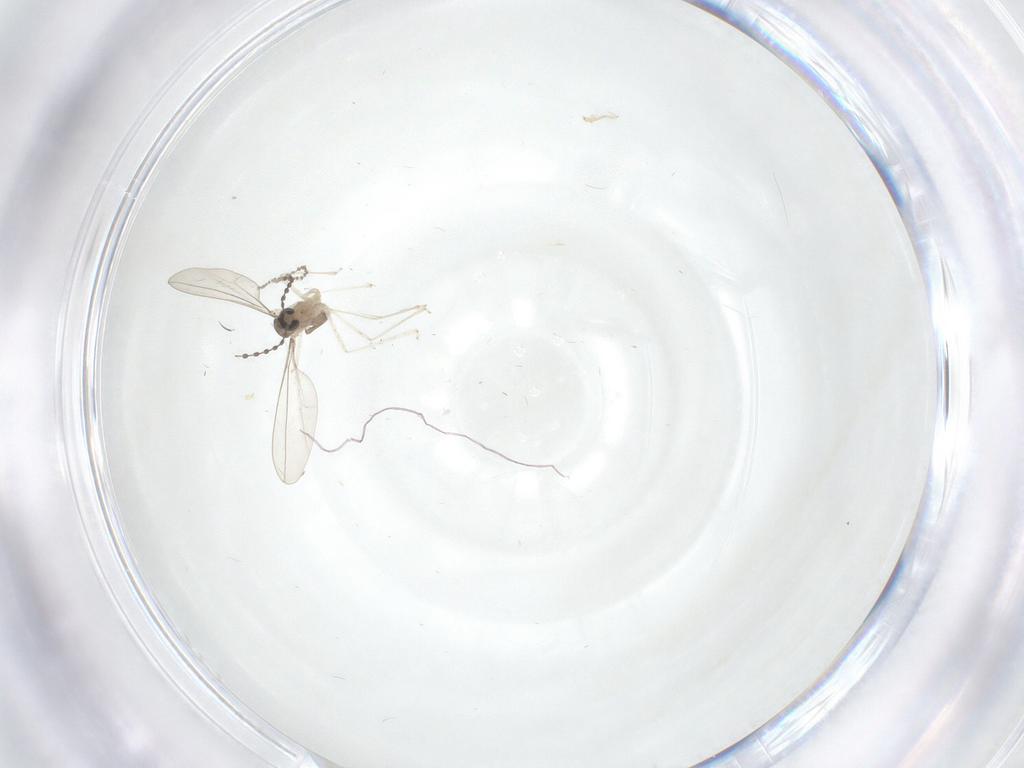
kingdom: Animalia
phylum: Arthropoda
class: Insecta
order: Diptera
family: Cecidomyiidae
